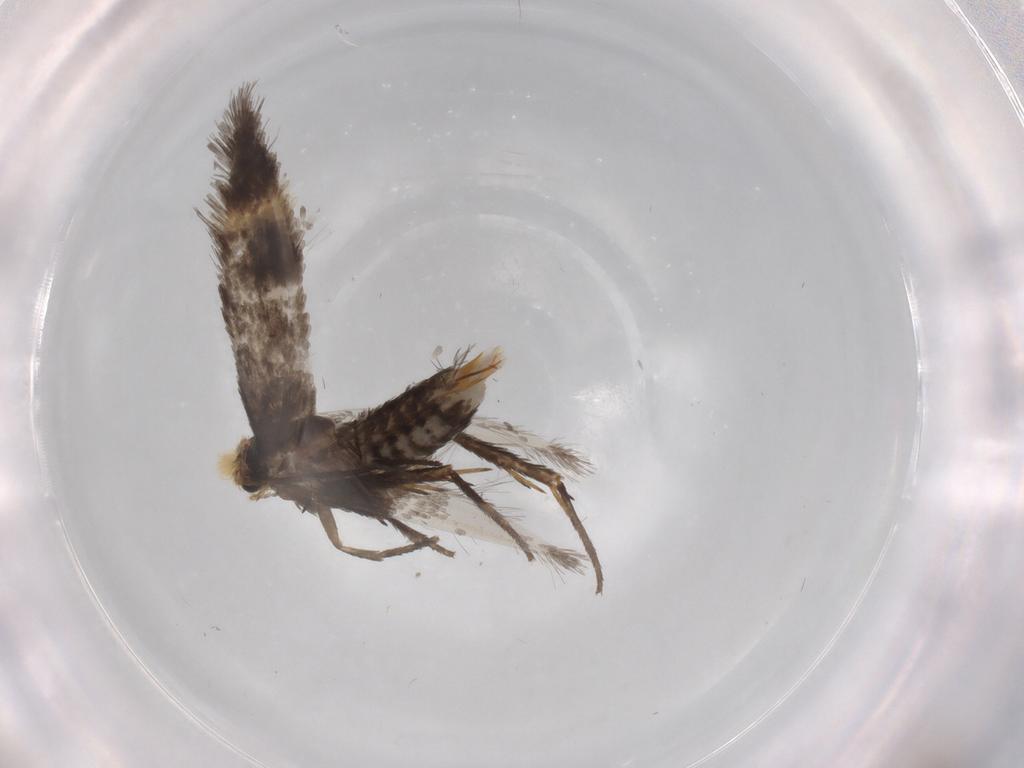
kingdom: Animalia
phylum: Arthropoda
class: Insecta
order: Lepidoptera
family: Nepticulidae
